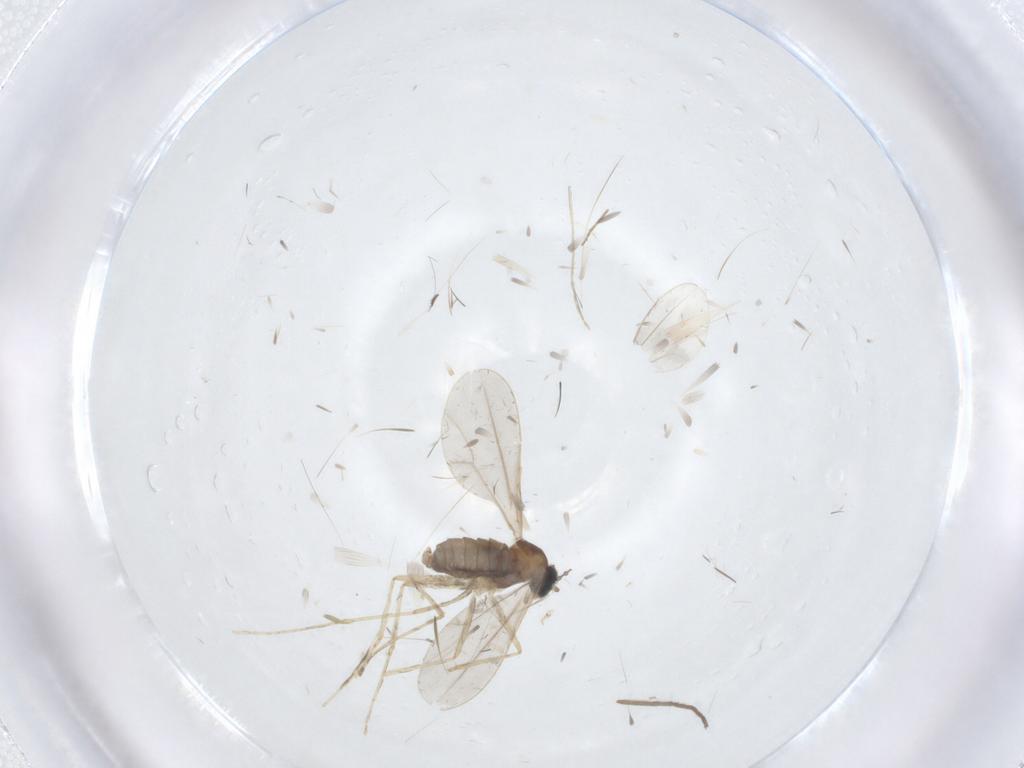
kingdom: Animalia
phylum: Arthropoda
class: Insecta
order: Diptera
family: Chironomidae
